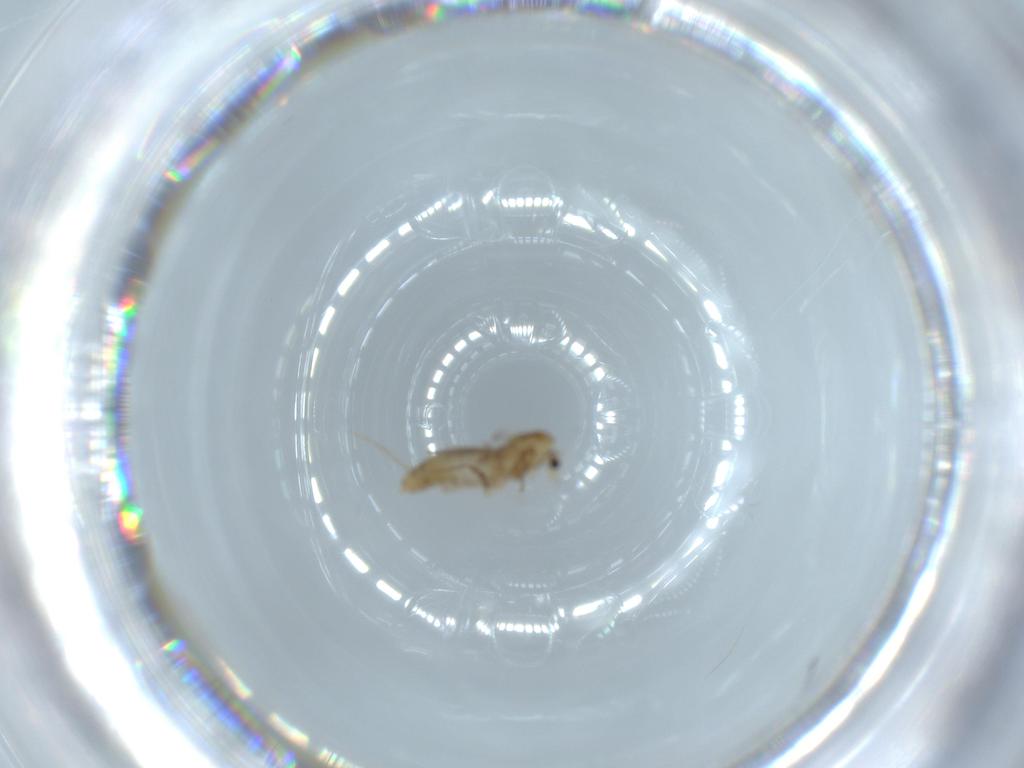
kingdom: Animalia
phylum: Arthropoda
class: Insecta
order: Diptera
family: Chironomidae
